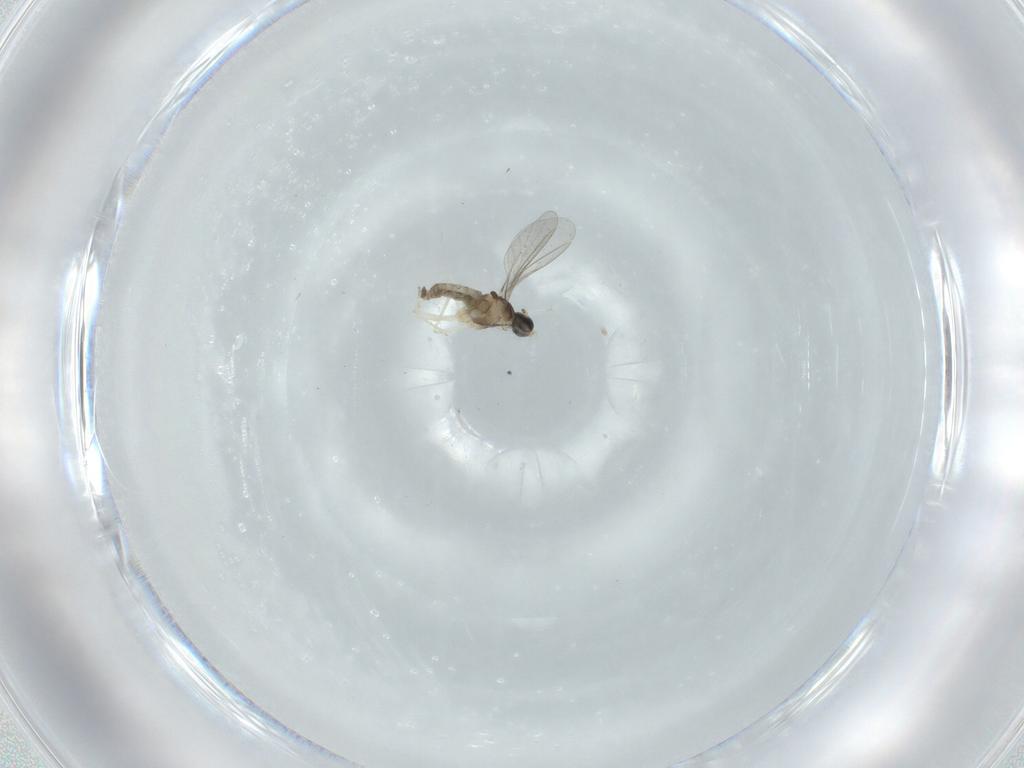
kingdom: Animalia
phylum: Arthropoda
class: Insecta
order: Diptera
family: Cecidomyiidae
